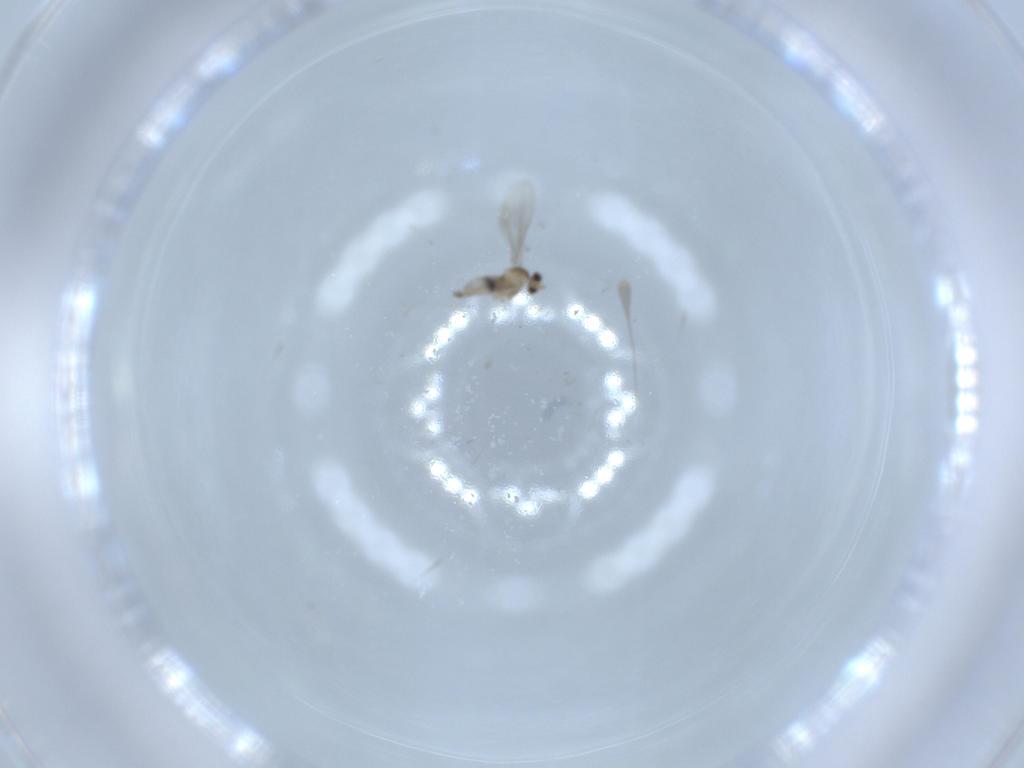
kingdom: Animalia
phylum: Arthropoda
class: Insecta
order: Diptera
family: Cecidomyiidae
